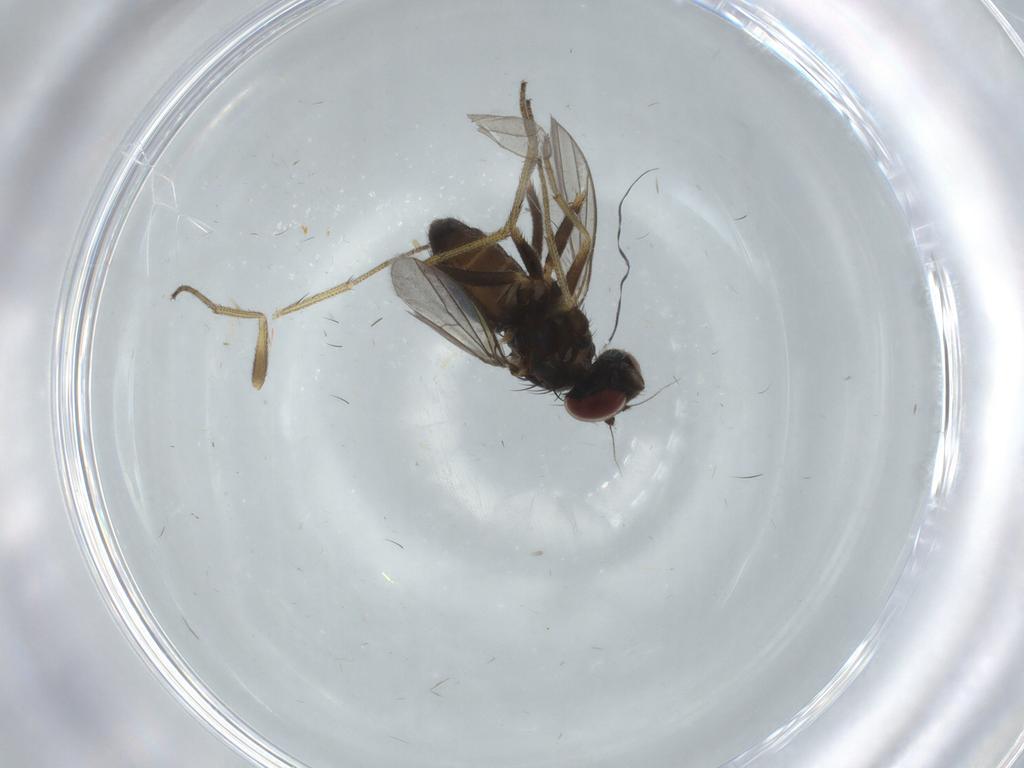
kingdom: Animalia
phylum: Arthropoda
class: Insecta
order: Diptera
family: Dolichopodidae
